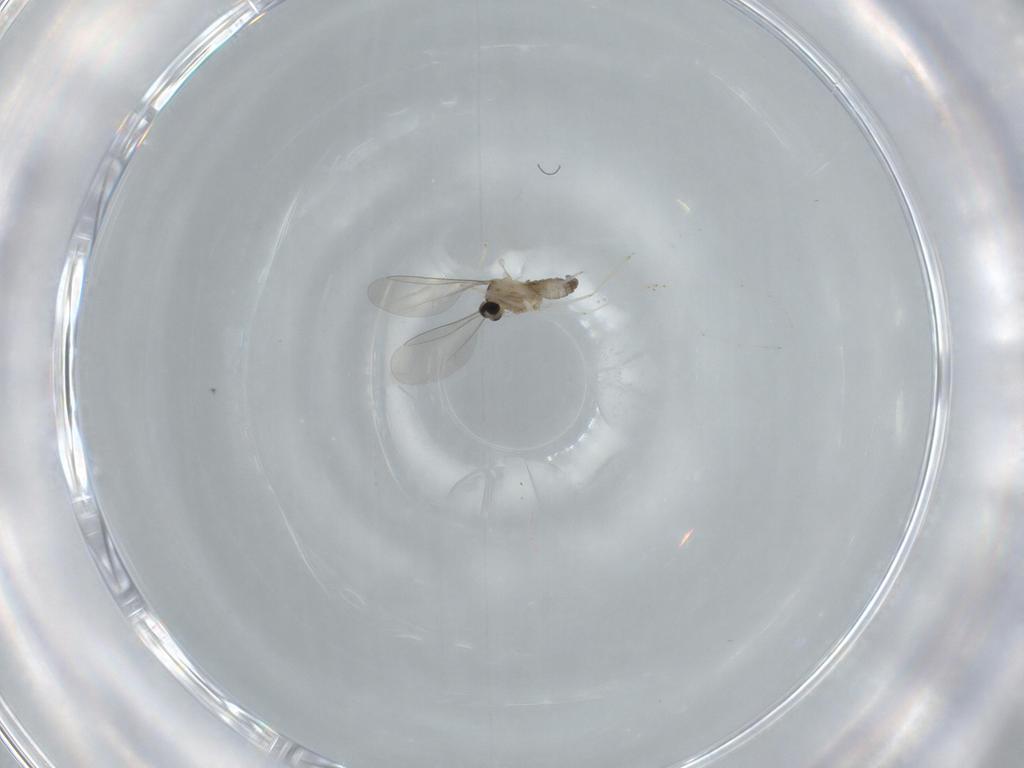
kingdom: Animalia
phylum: Arthropoda
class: Insecta
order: Diptera
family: Cecidomyiidae
